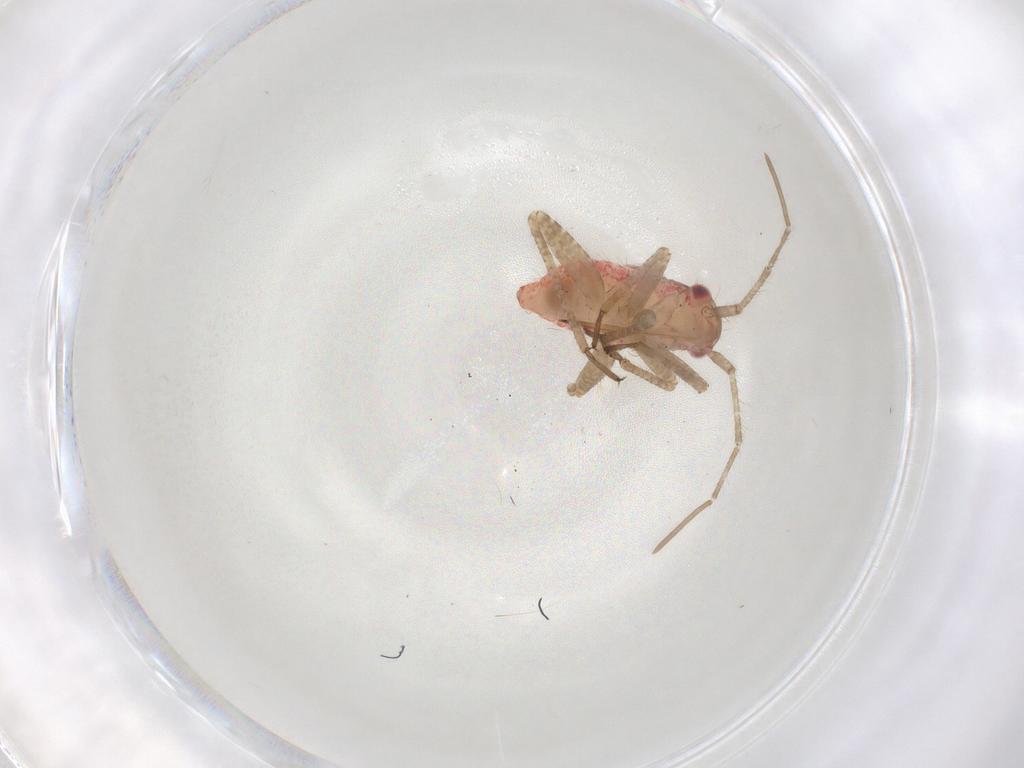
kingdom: Animalia
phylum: Arthropoda
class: Insecta
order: Hemiptera
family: Miridae
